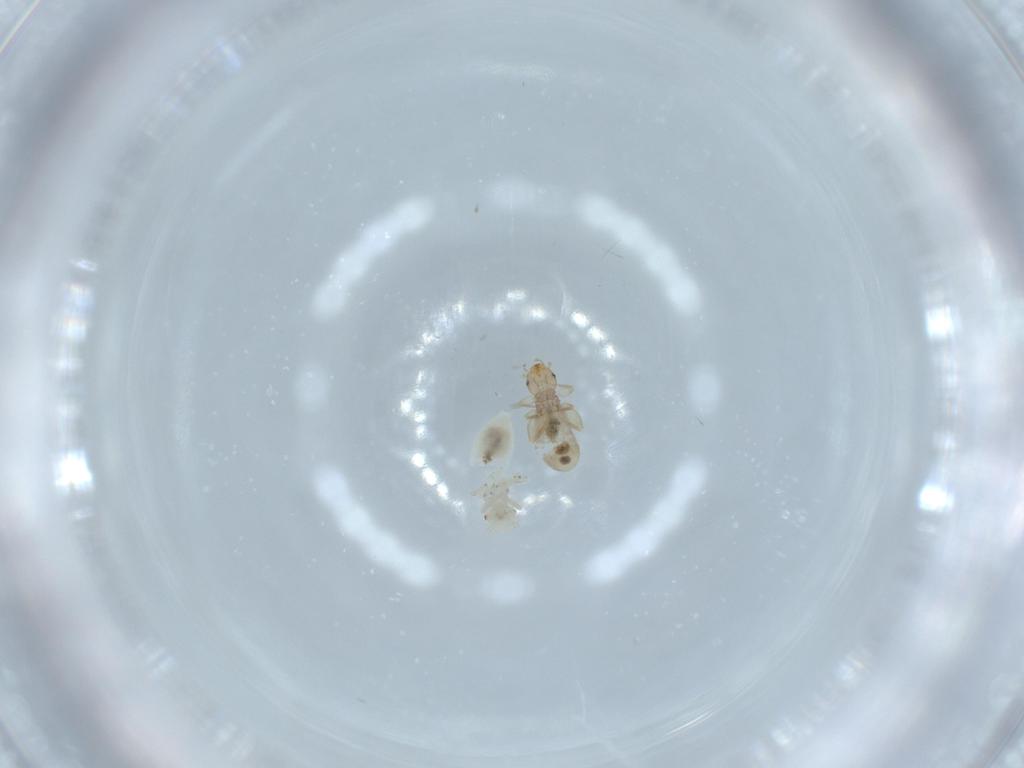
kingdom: Animalia
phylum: Arthropoda
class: Insecta
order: Psocodea
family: Caeciliusidae
